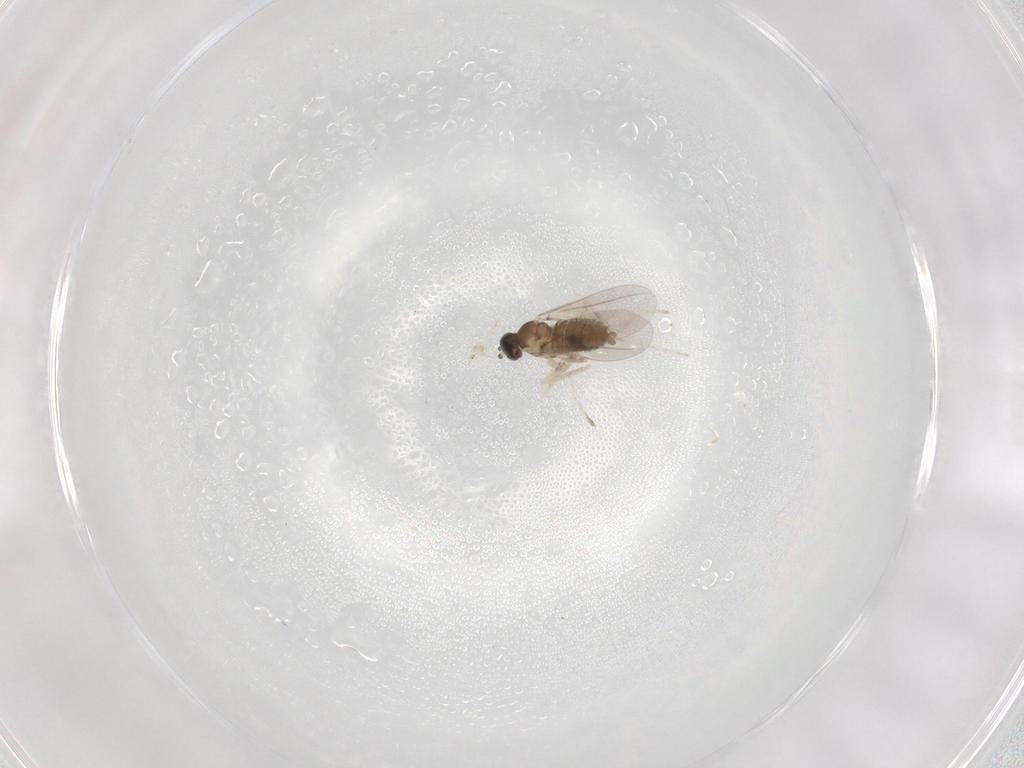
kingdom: Animalia
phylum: Arthropoda
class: Insecta
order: Diptera
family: Cecidomyiidae
